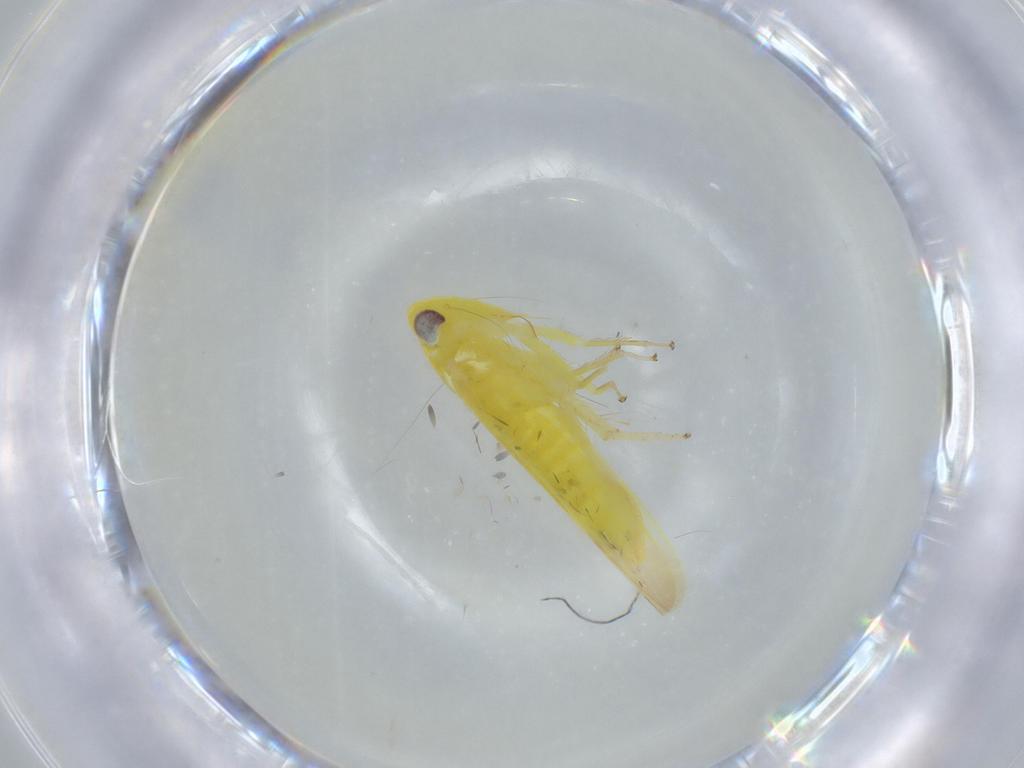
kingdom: Animalia
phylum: Arthropoda
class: Insecta
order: Hemiptera
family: Cicadellidae
